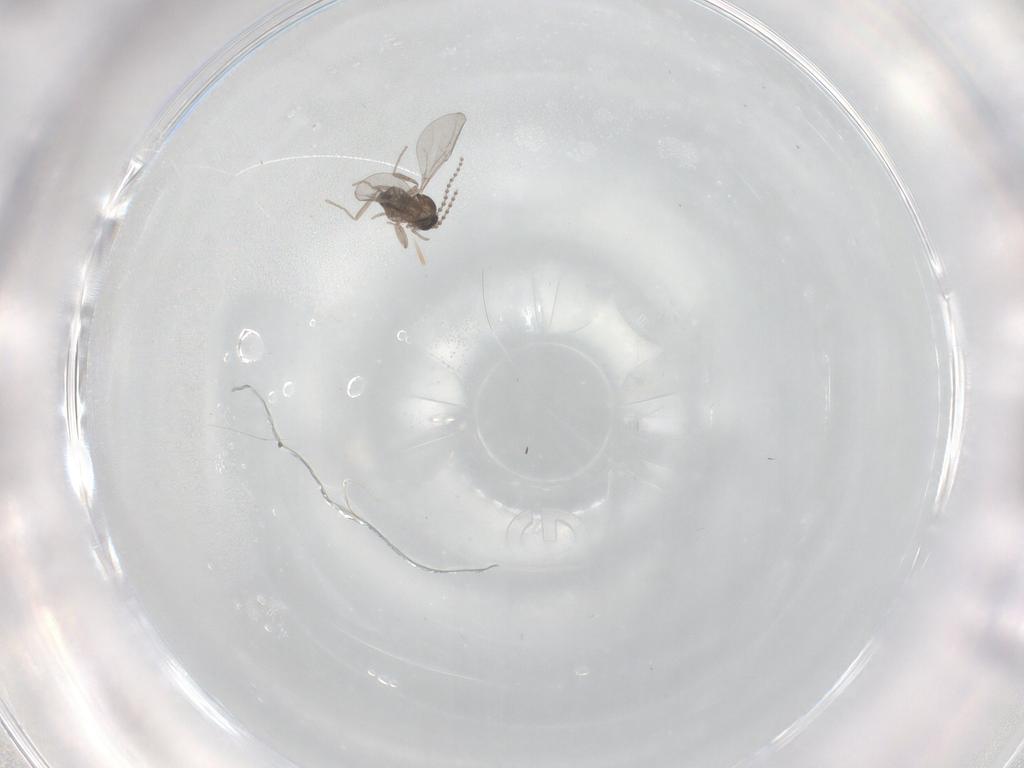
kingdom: Animalia
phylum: Arthropoda
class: Insecta
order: Diptera
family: Cecidomyiidae
